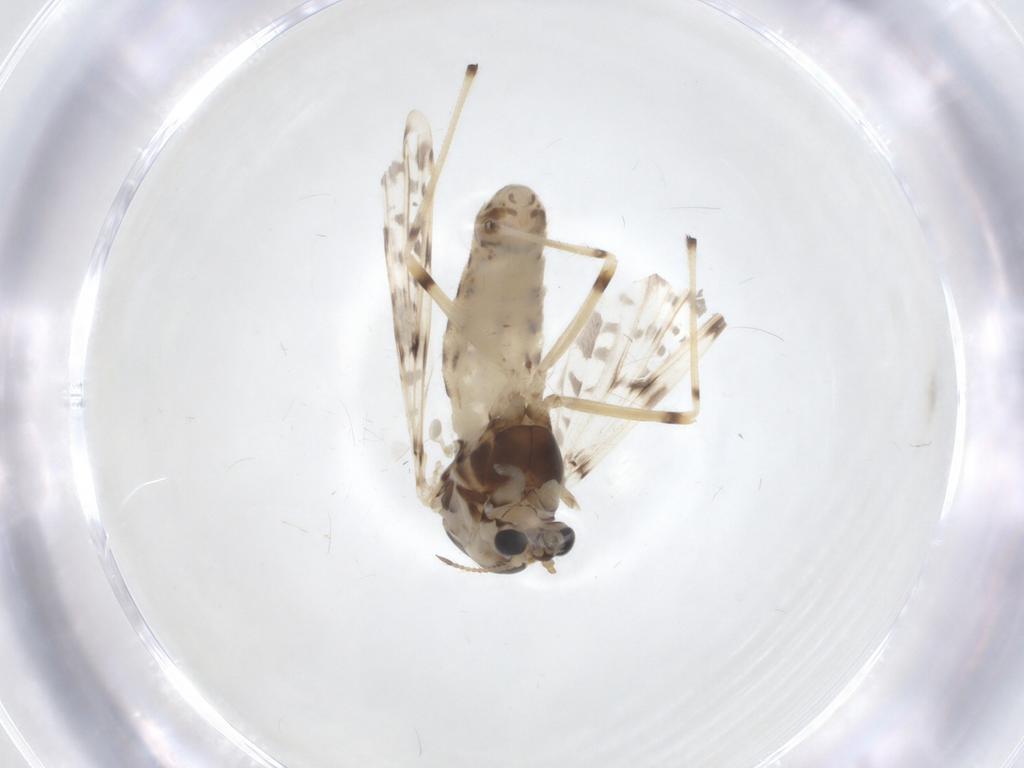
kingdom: Animalia
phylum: Arthropoda
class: Insecta
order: Diptera
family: Chironomidae
